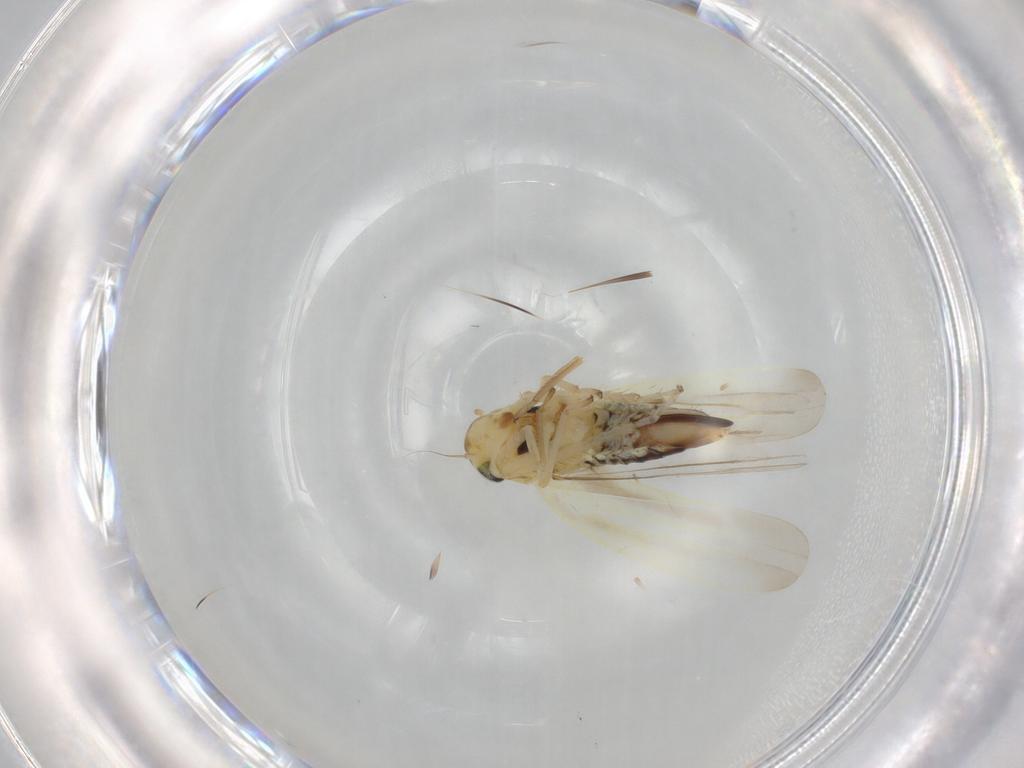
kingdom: Animalia
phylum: Arthropoda
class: Insecta
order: Hemiptera
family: Cicadellidae
